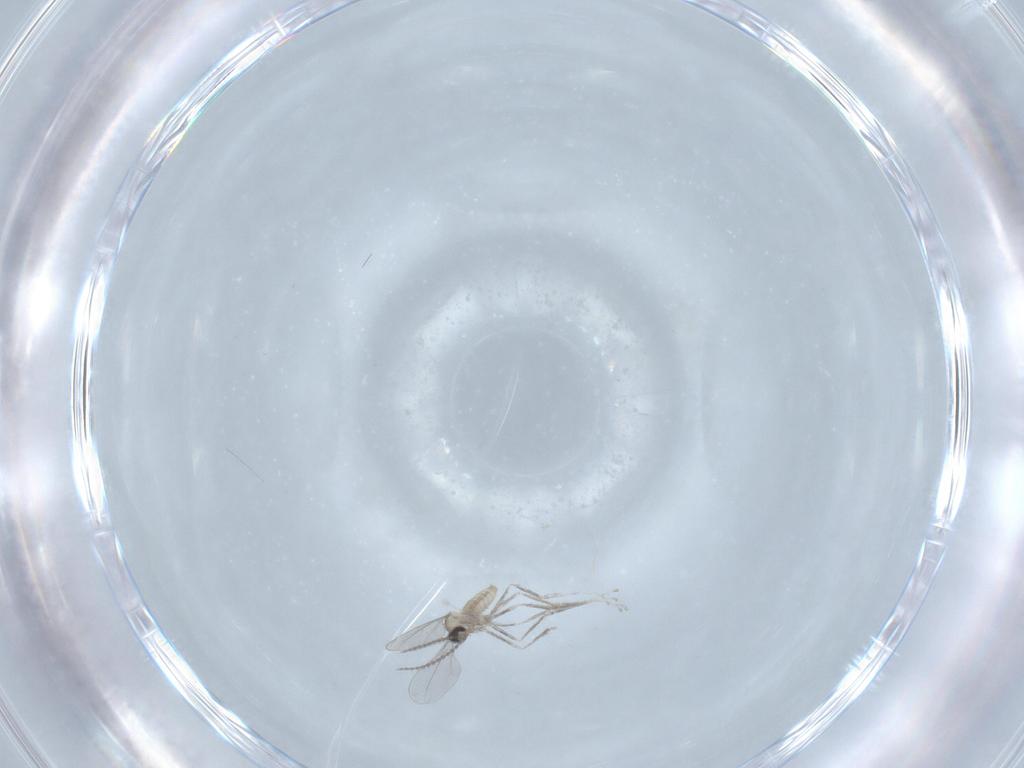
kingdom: Animalia
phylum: Arthropoda
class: Insecta
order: Diptera
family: Cecidomyiidae
